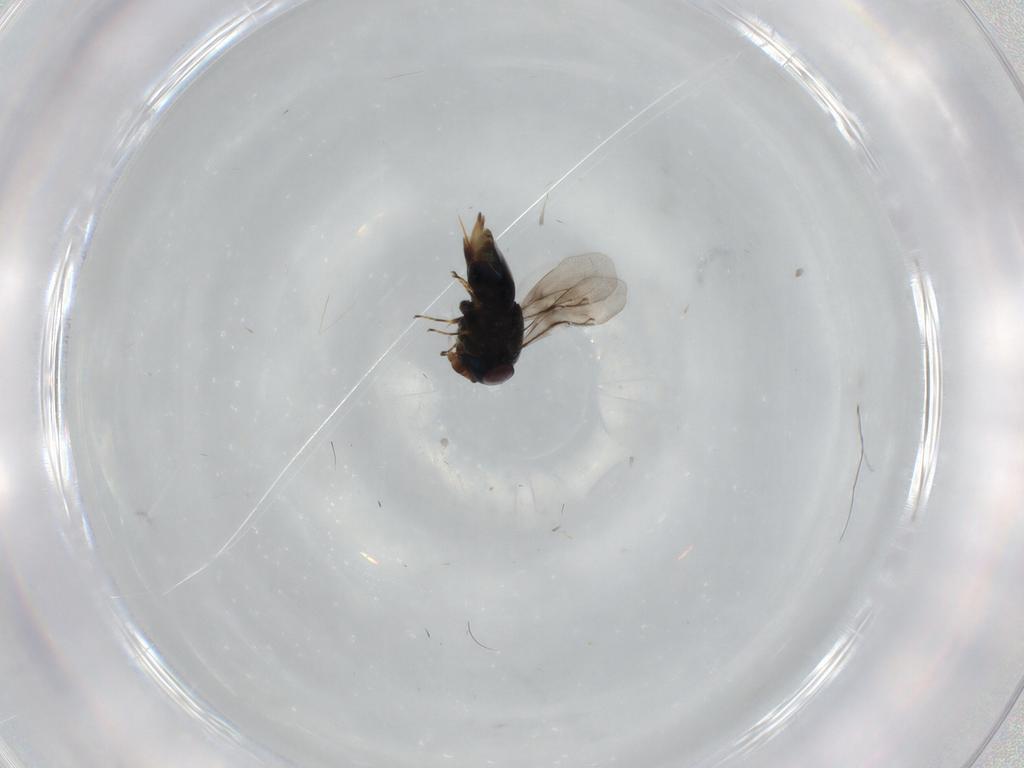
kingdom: Animalia
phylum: Arthropoda
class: Insecta
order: Hymenoptera
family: Encyrtidae
